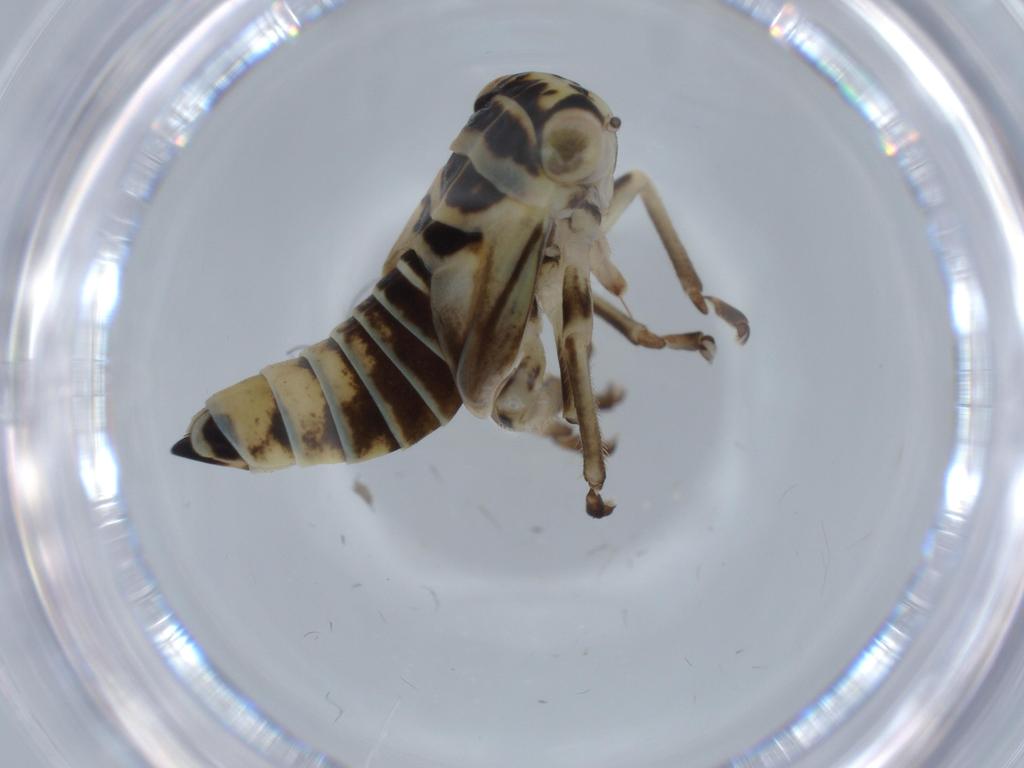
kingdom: Animalia
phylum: Arthropoda
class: Insecta
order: Hemiptera
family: Cicadellidae
